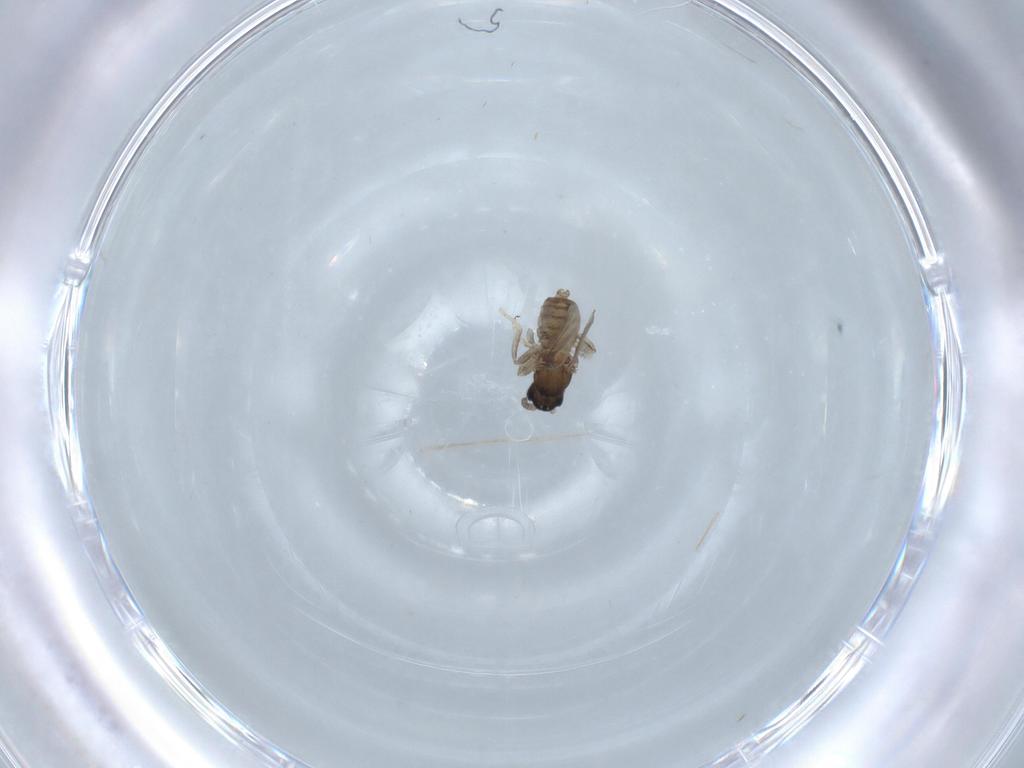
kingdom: Animalia
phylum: Arthropoda
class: Insecta
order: Diptera
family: Cecidomyiidae
